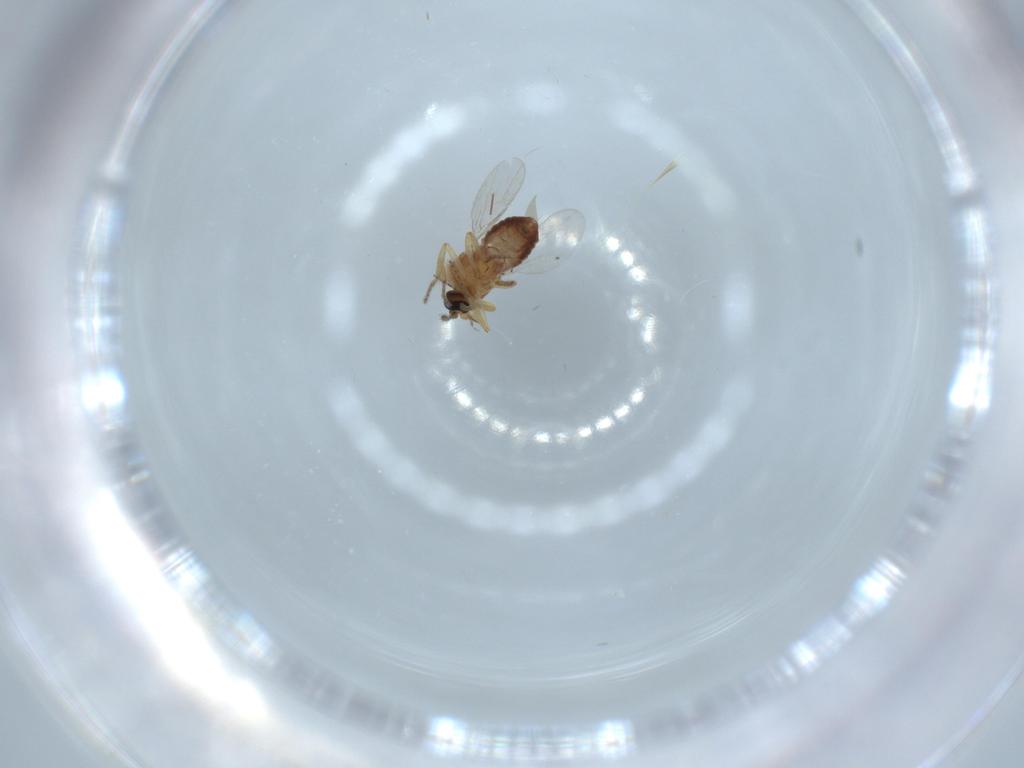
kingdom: Animalia
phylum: Arthropoda
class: Insecta
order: Diptera
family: Ceratopogonidae
